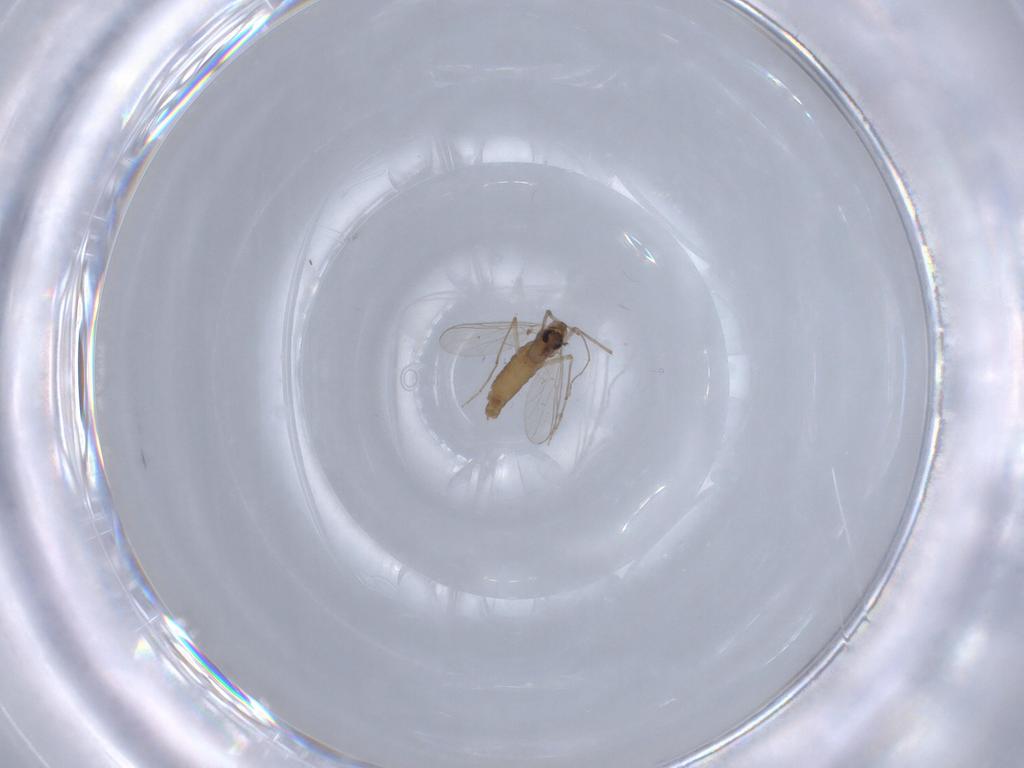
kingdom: Animalia
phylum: Arthropoda
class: Insecta
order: Diptera
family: Chironomidae
